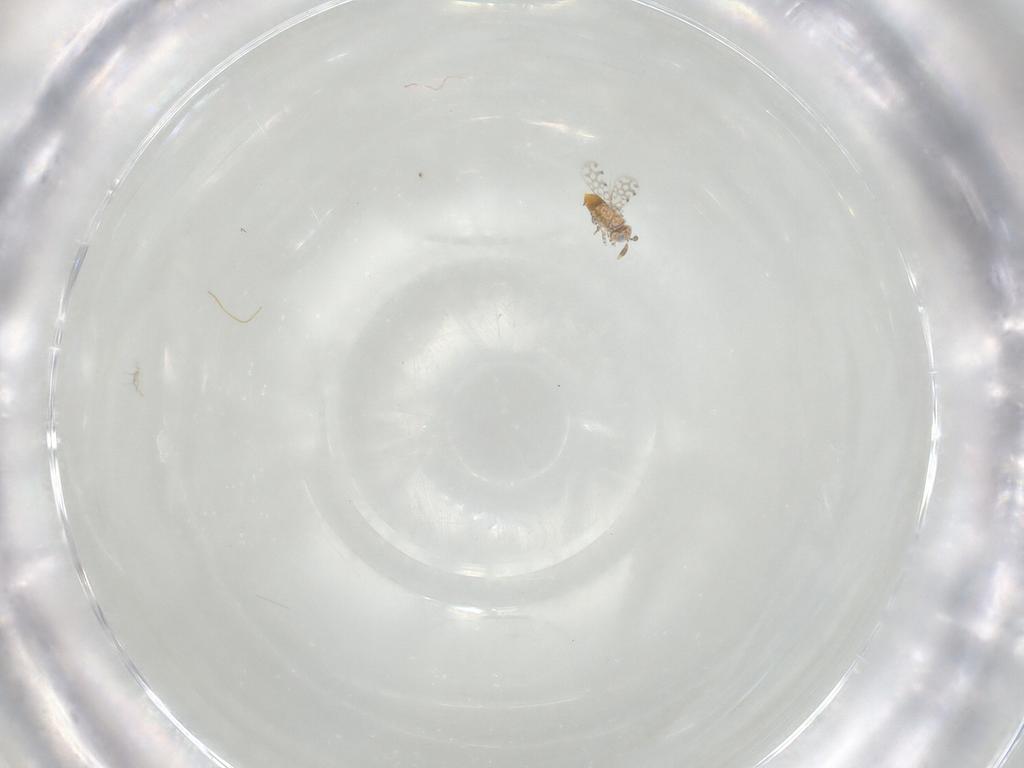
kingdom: Animalia
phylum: Arthropoda
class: Insecta
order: Hymenoptera
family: Aphelinidae
